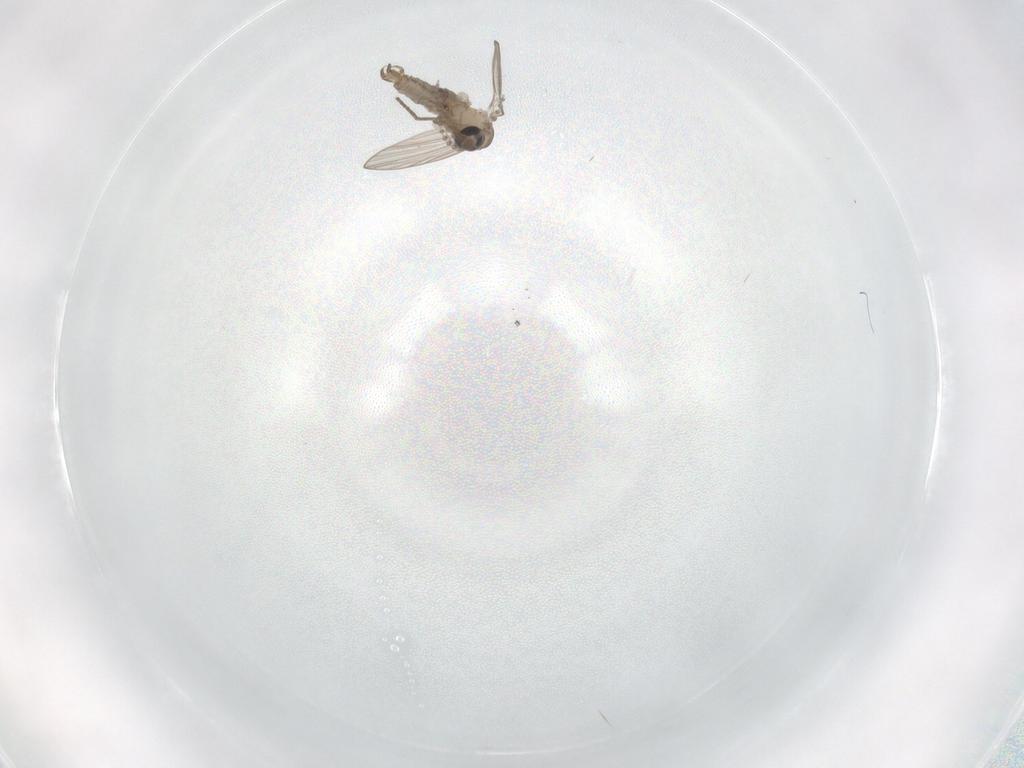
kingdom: Animalia
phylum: Arthropoda
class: Insecta
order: Diptera
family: Psychodidae
